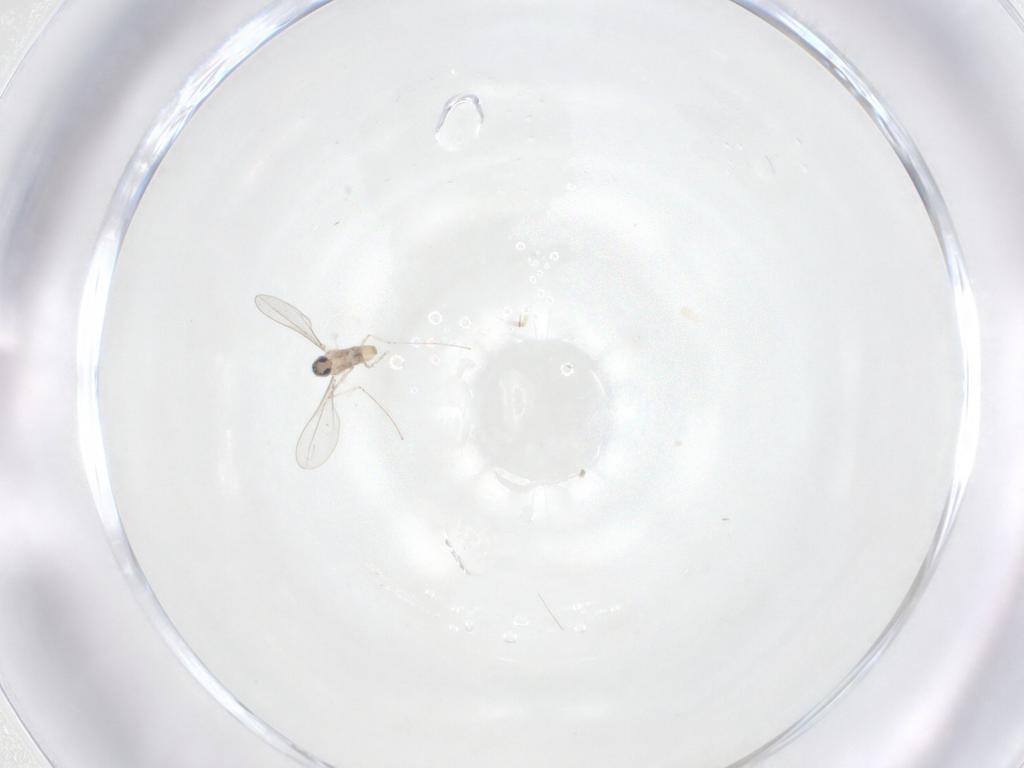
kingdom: Animalia
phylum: Arthropoda
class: Insecta
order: Diptera
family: Cecidomyiidae
